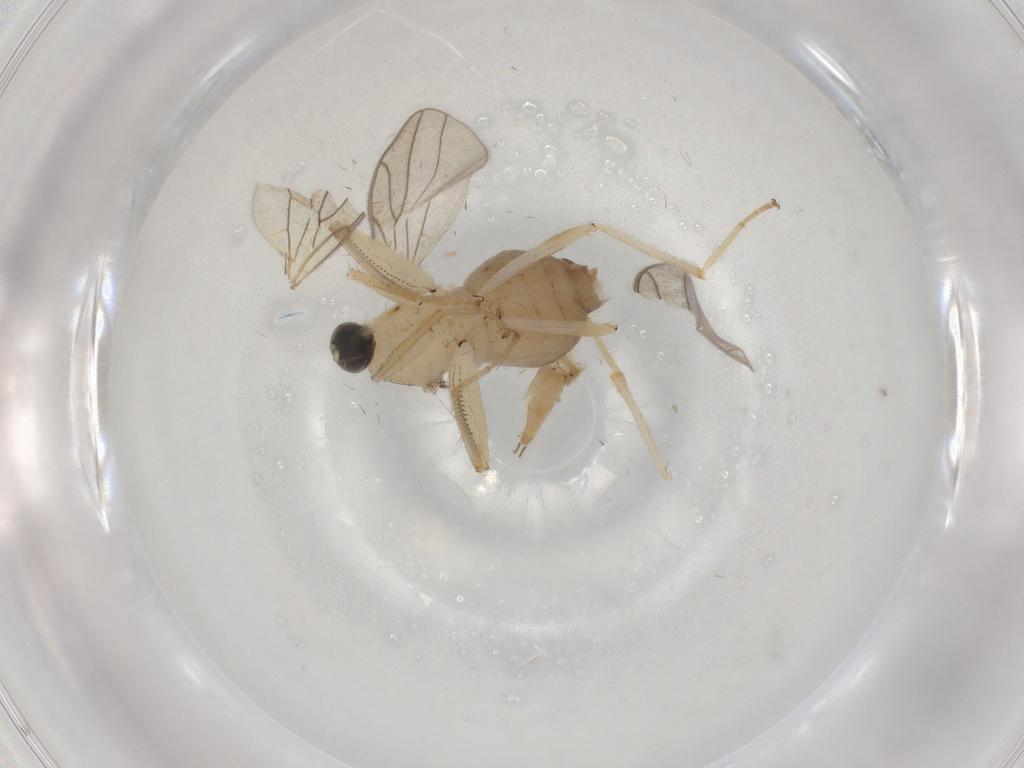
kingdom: Animalia
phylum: Arthropoda
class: Insecta
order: Diptera
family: Hybotidae
